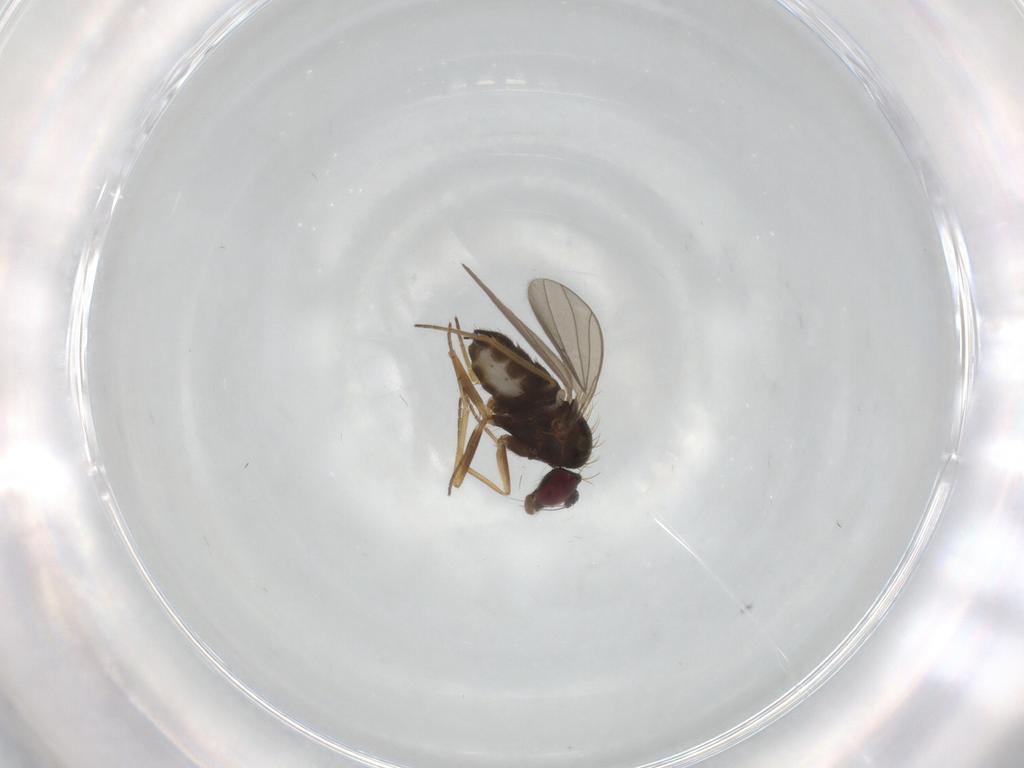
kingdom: Animalia
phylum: Arthropoda
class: Insecta
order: Diptera
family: Dolichopodidae
